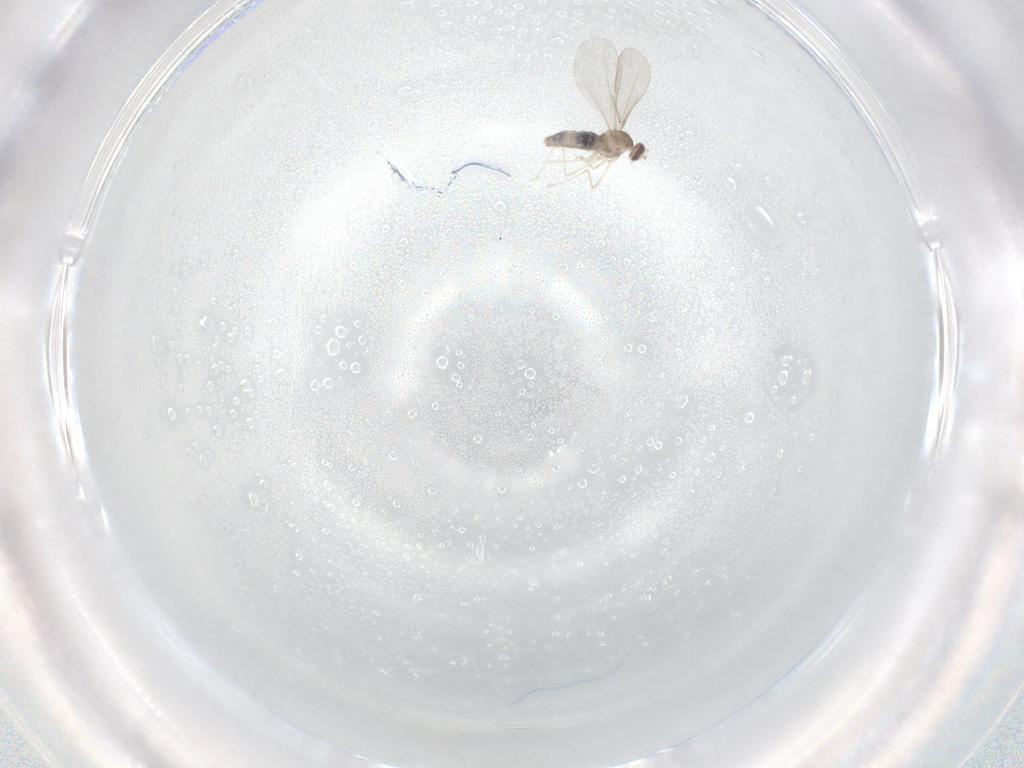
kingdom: Animalia
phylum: Arthropoda
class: Insecta
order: Diptera
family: Cecidomyiidae
